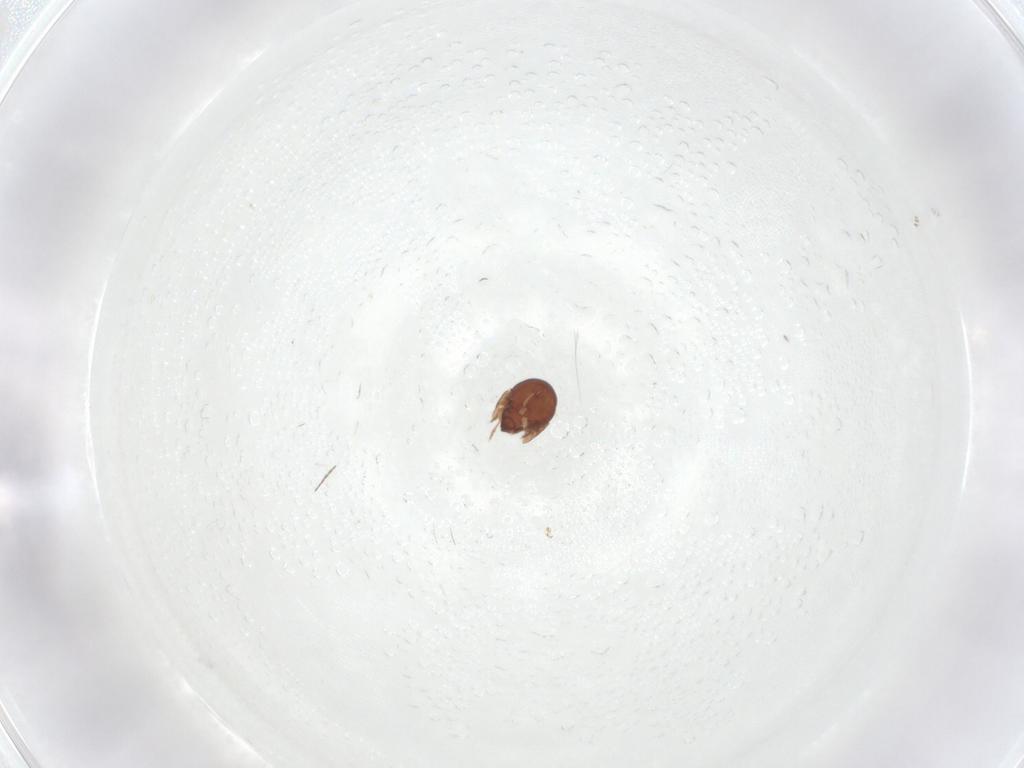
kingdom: Animalia
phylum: Arthropoda
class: Arachnida
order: Sarcoptiformes
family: Galumnidae
